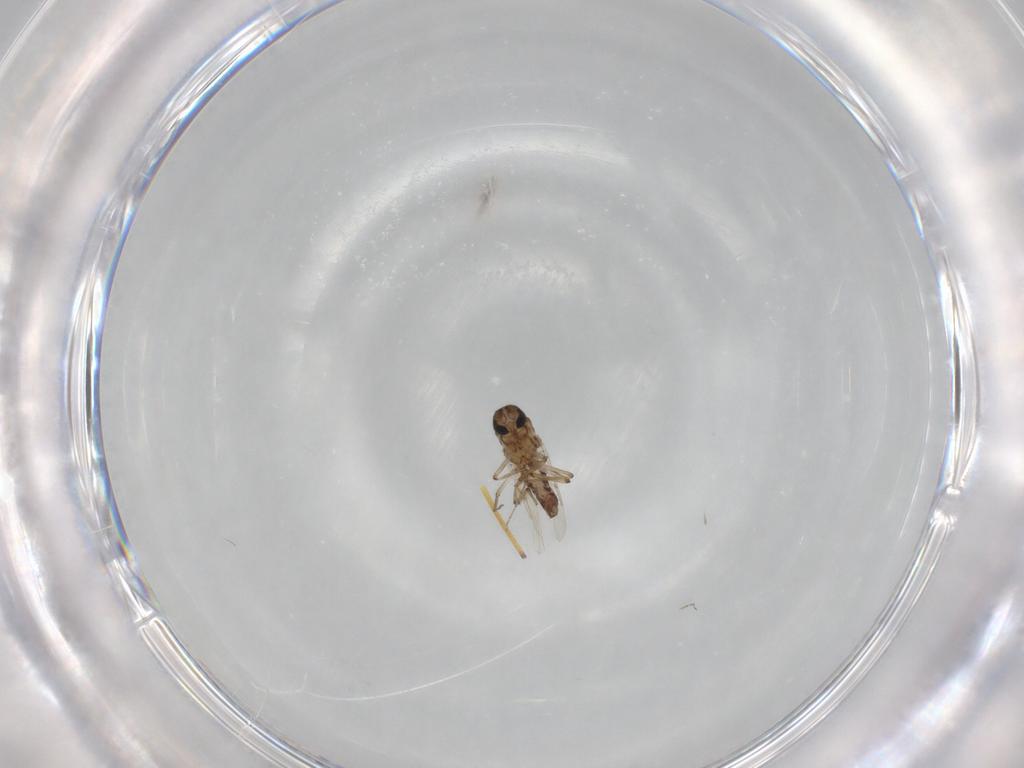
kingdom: Animalia
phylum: Arthropoda
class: Insecta
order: Diptera
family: Ceratopogonidae
